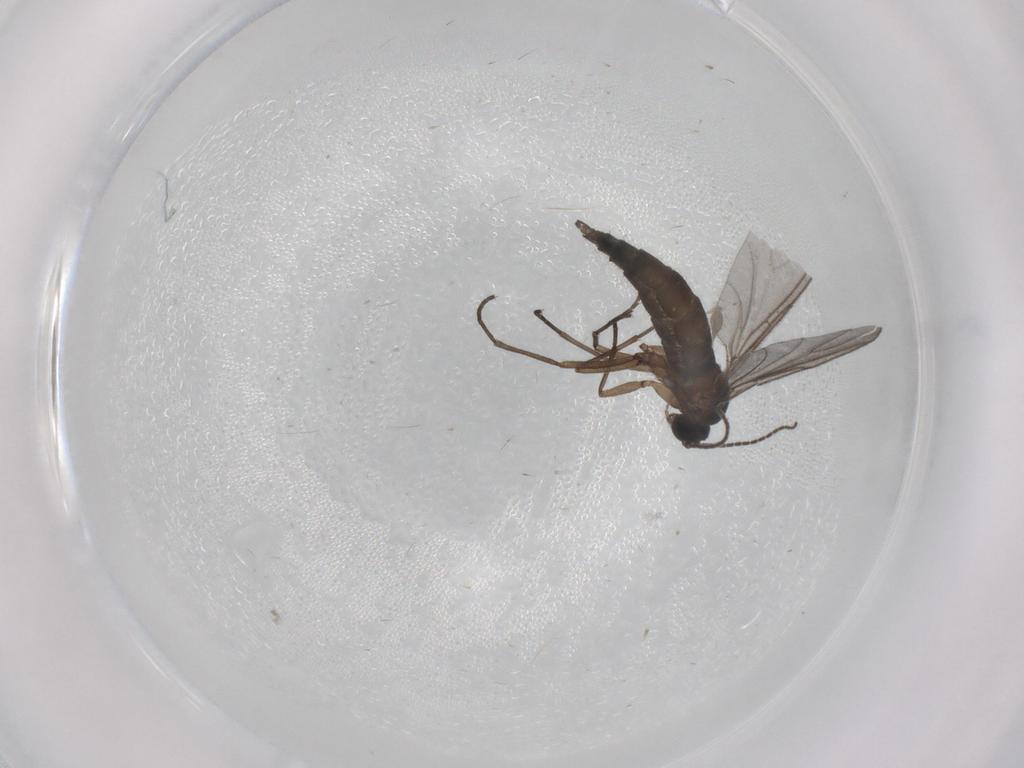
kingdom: Animalia
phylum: Arthropoda
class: Insecta
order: Diptera
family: Sciaridae
